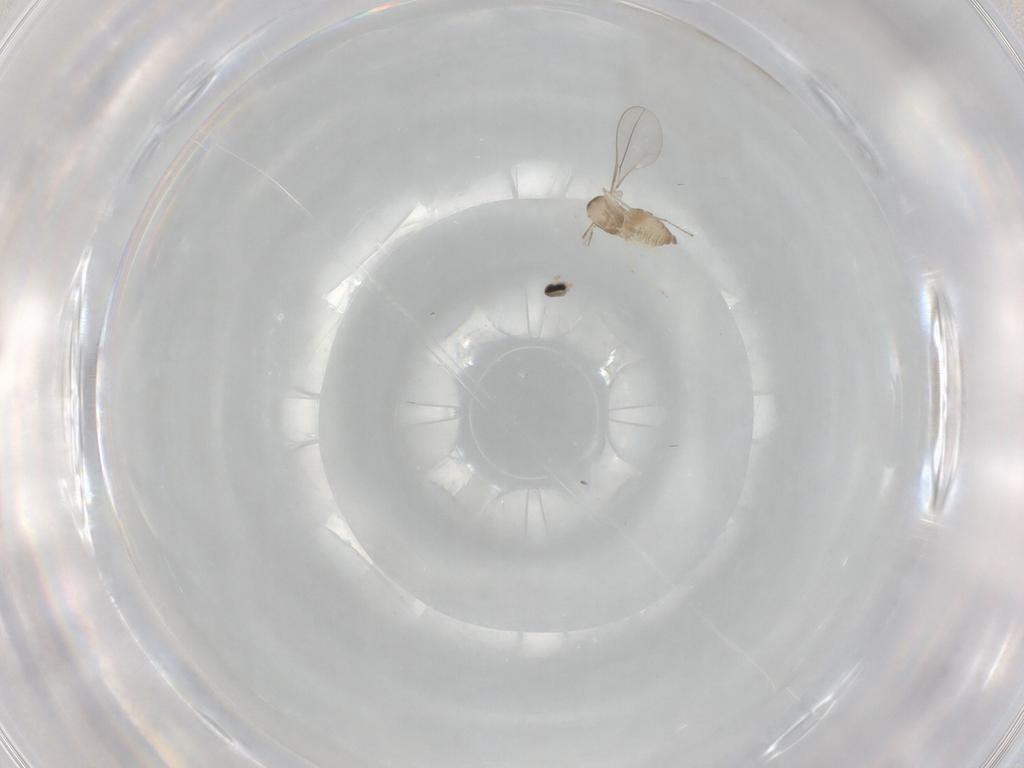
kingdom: Animalia
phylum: Arthropoda
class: Insecta
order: Diptera
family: Cecidomyiidae
